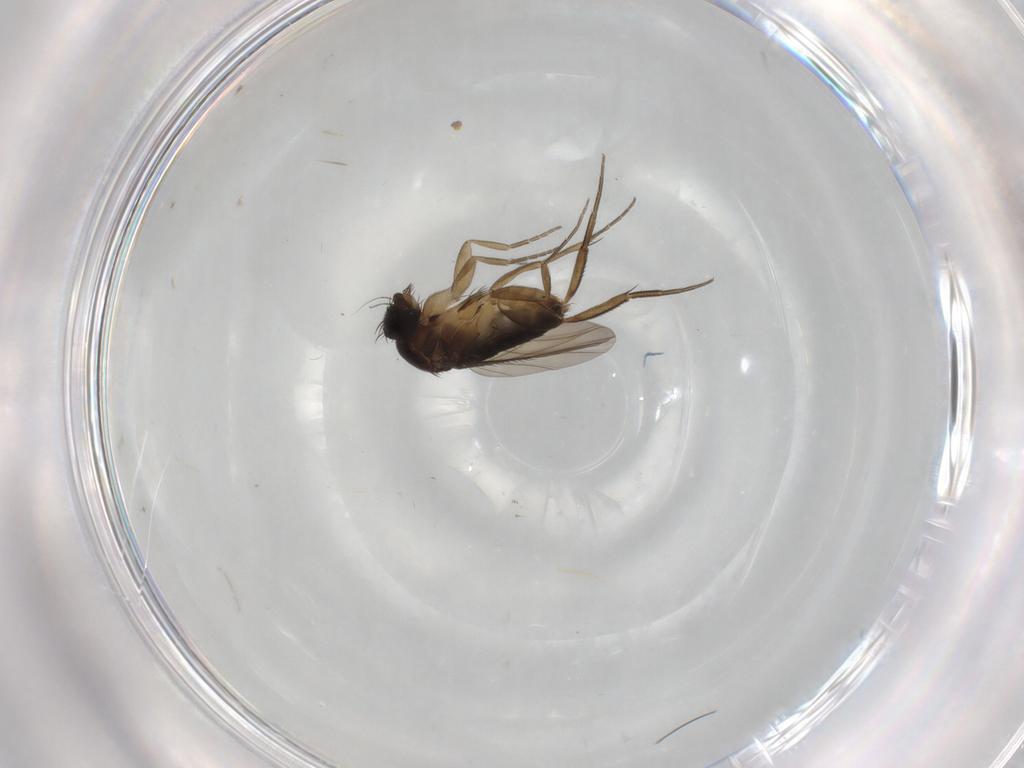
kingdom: Animalia
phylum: Arthropoda
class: Insecta
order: Diptera
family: Phoridae
